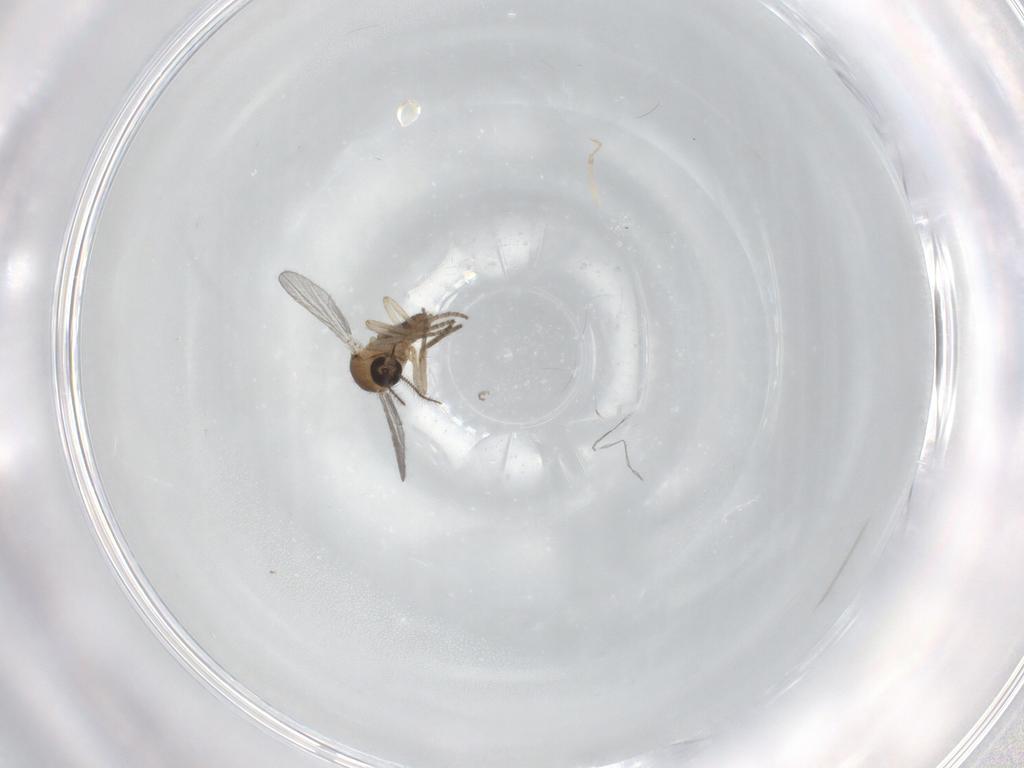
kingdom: Animalia
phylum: Arthropoda
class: Insecta
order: Diptera
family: Ceratopogonidae
